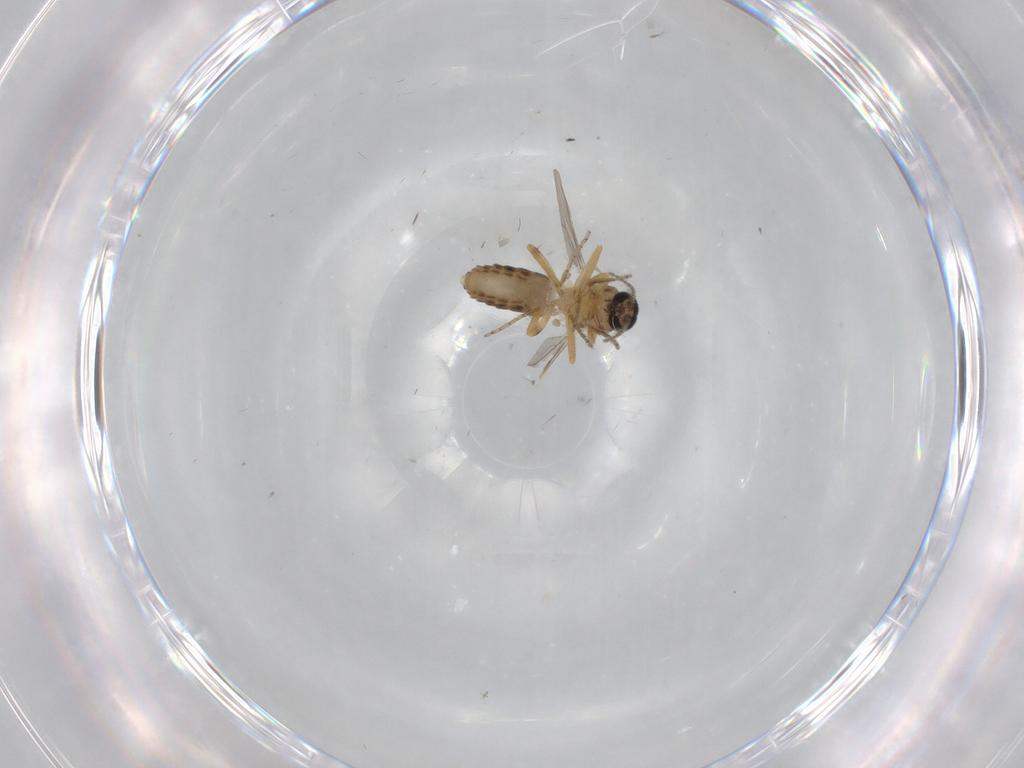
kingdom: Animalia
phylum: Arthropoda
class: Insecta
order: Diptera
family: Ceratopogonidae
